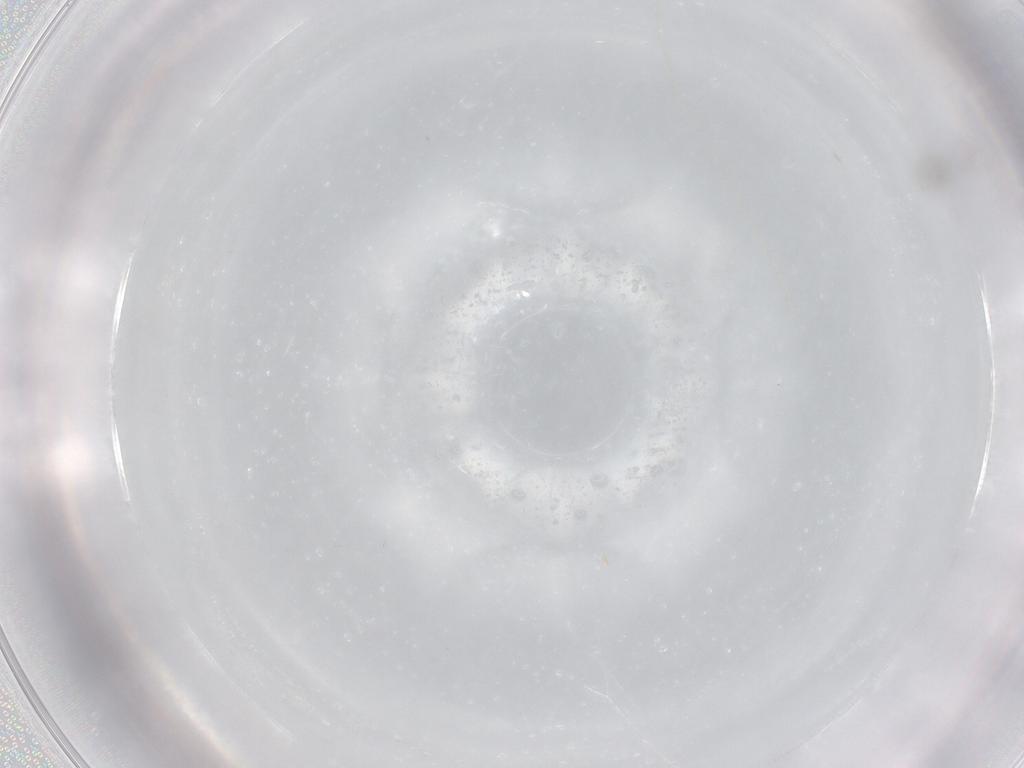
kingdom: Animalia
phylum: Arthropoda
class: Insecta
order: Diptera
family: Cecidomyiidae
